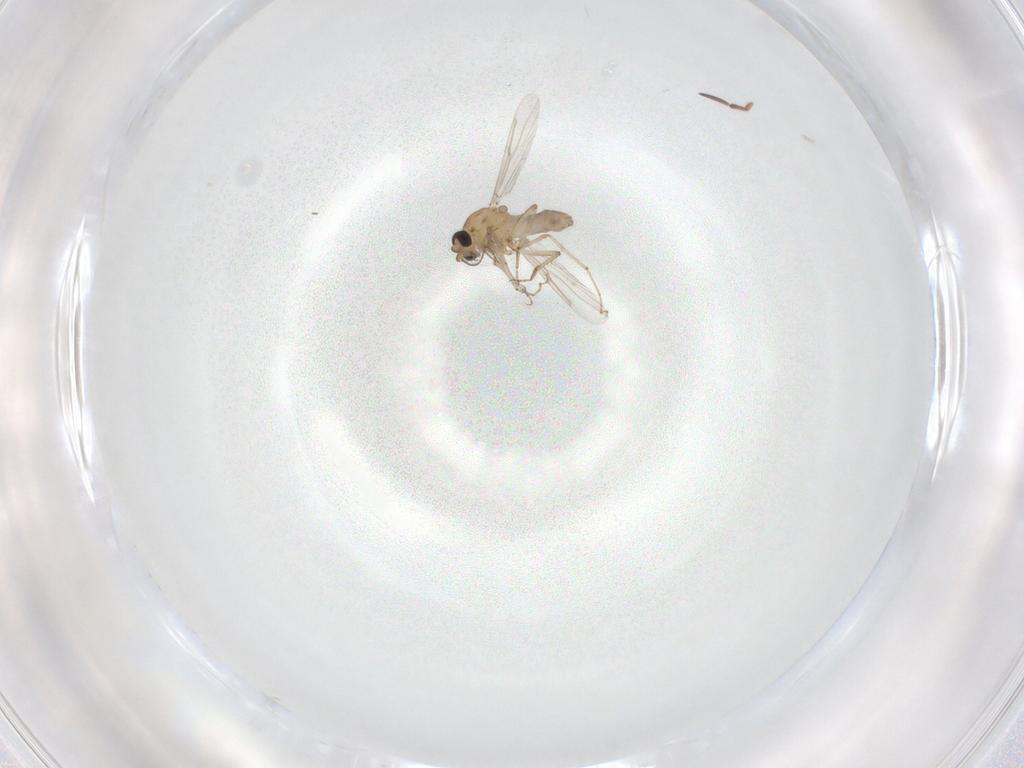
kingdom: Animalia
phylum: Arthropoda
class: Insecta
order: Diptera
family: Ceratopogonidae
